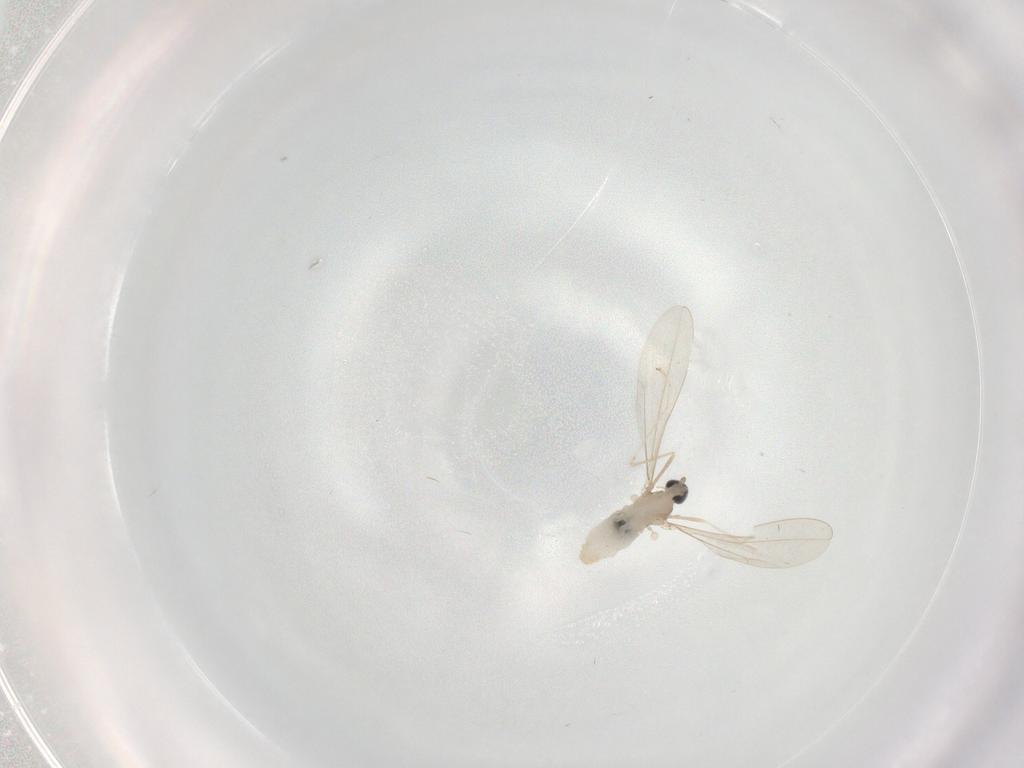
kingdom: Animalia
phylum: Arthropoda
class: Insecta
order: Diptera
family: Cecidomyiidae
